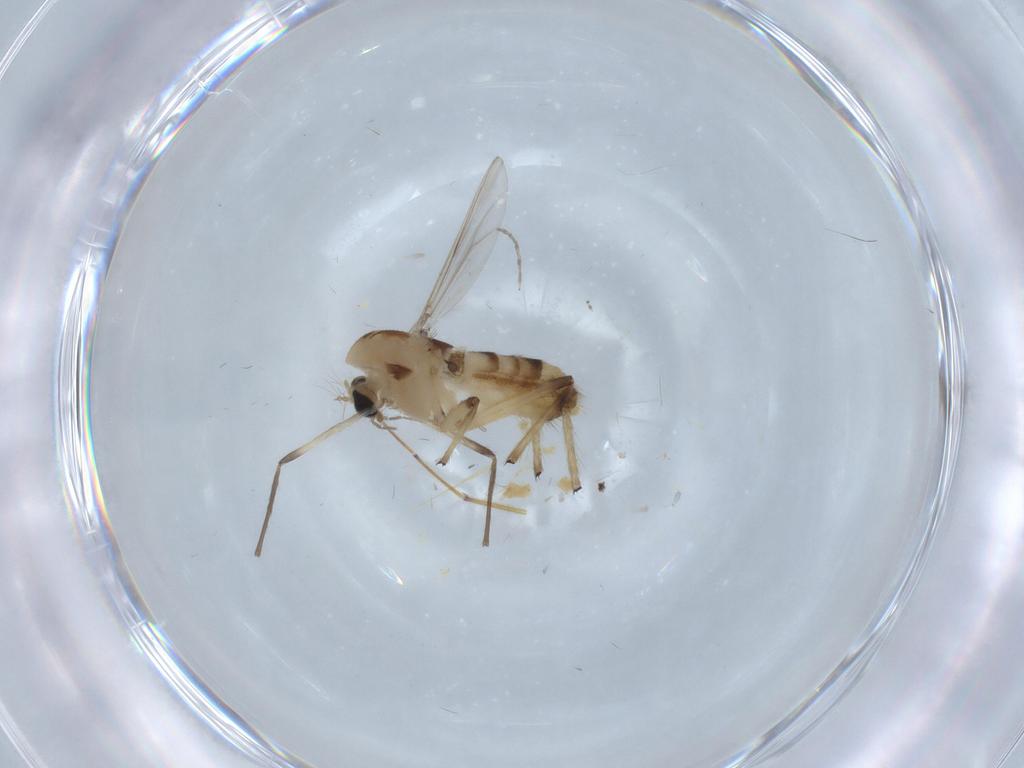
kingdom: Animalia
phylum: Arthropoda
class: Insecta
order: Diptera
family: Chironomidae
